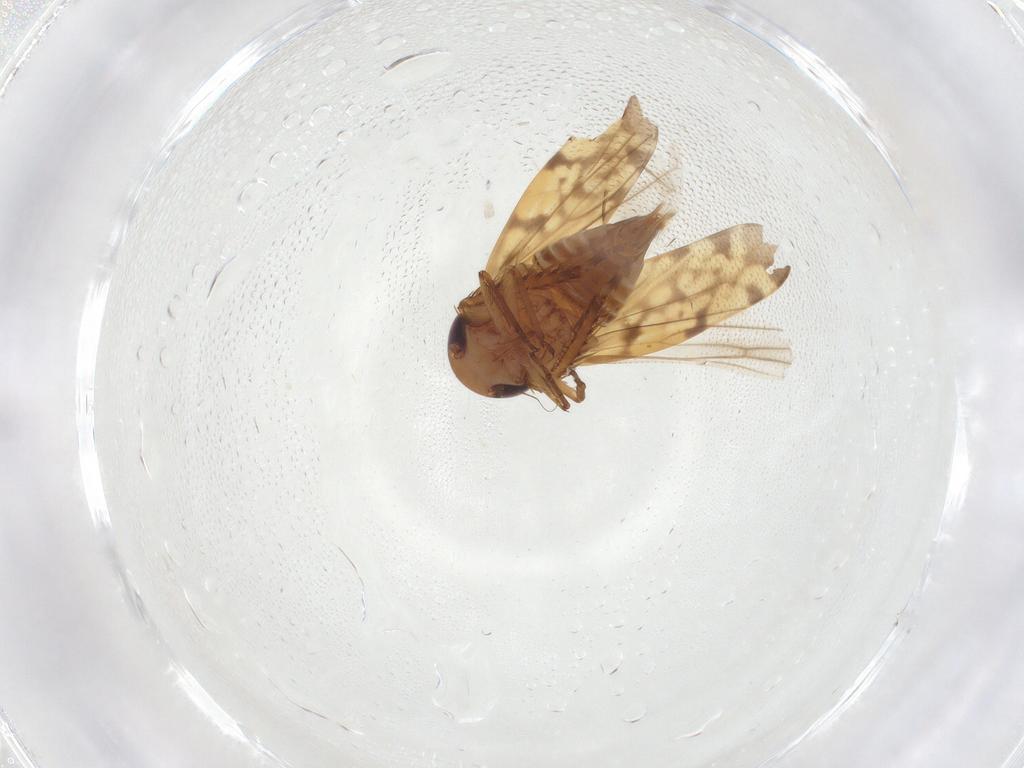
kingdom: Animalia
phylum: Arthropoda
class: Insecta
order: Hemiptera
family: Cicadellidae
